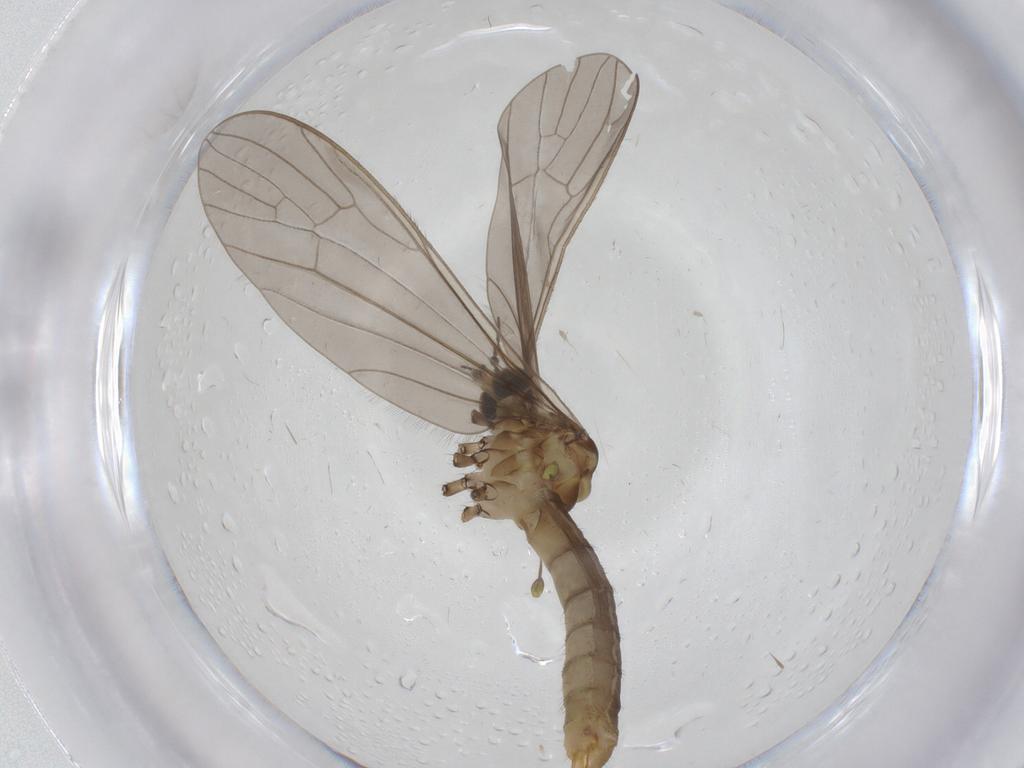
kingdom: Animalia
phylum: Arthropoda
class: Insecta
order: Diptera
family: Limoniidae
